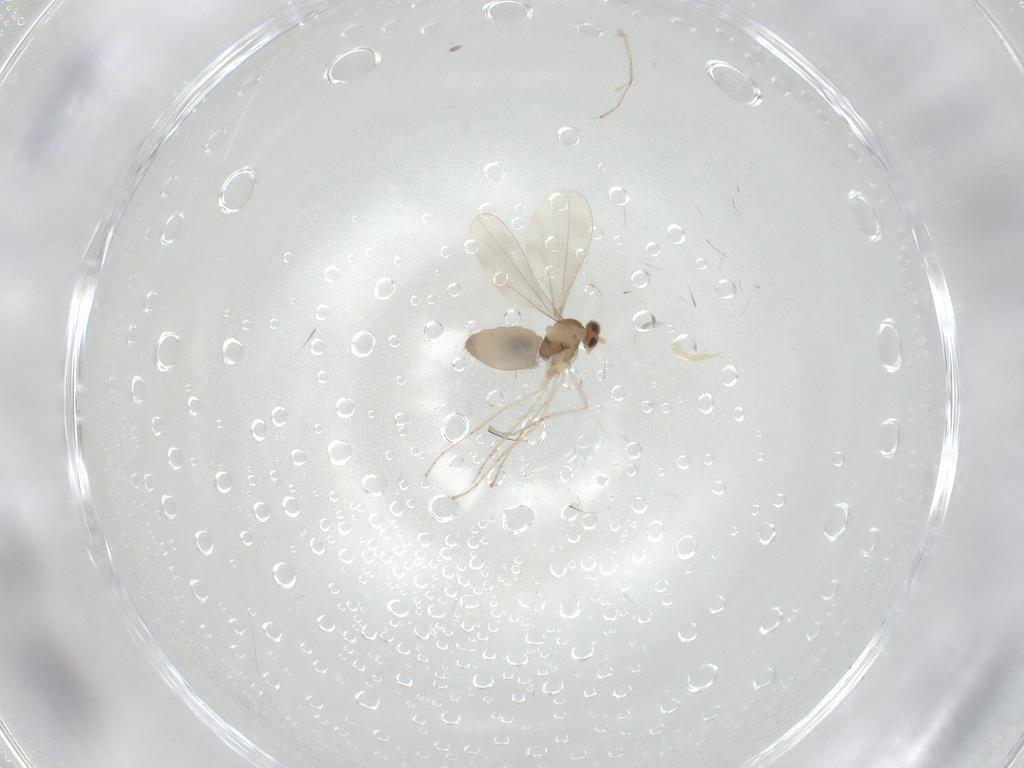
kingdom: Animalia
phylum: Arthropoda
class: Insecta
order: Diptera
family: Cecidomyiidae
